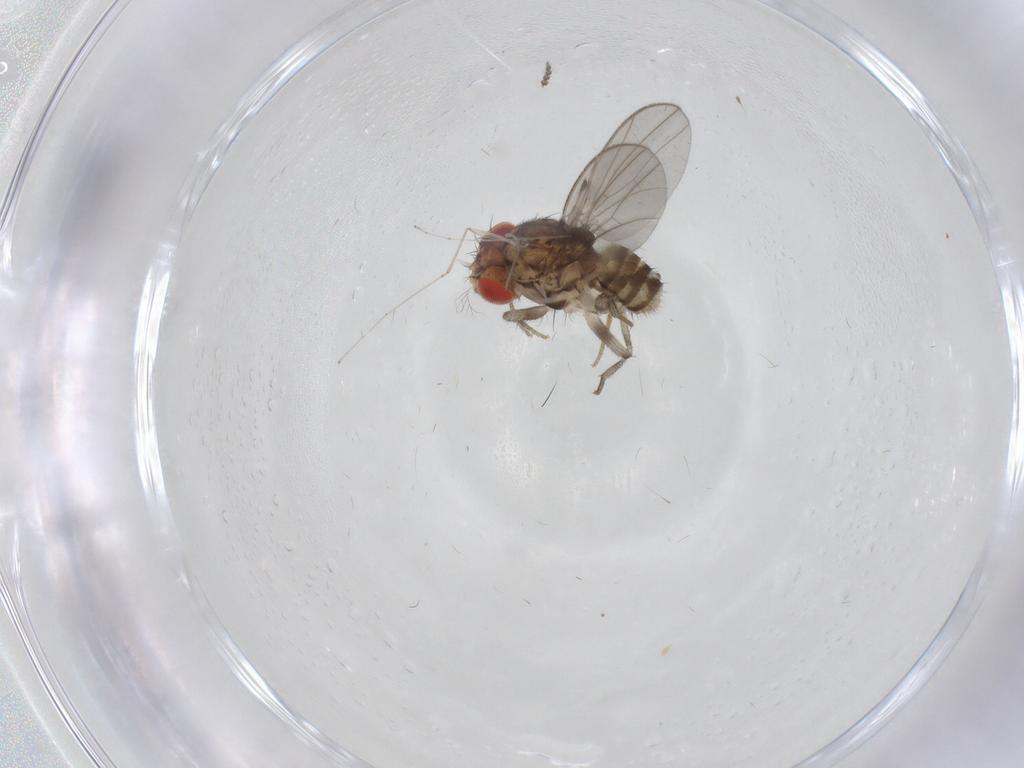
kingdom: Animalia
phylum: Arthropoda
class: Insecta
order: Diptera
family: Drosophilidae
